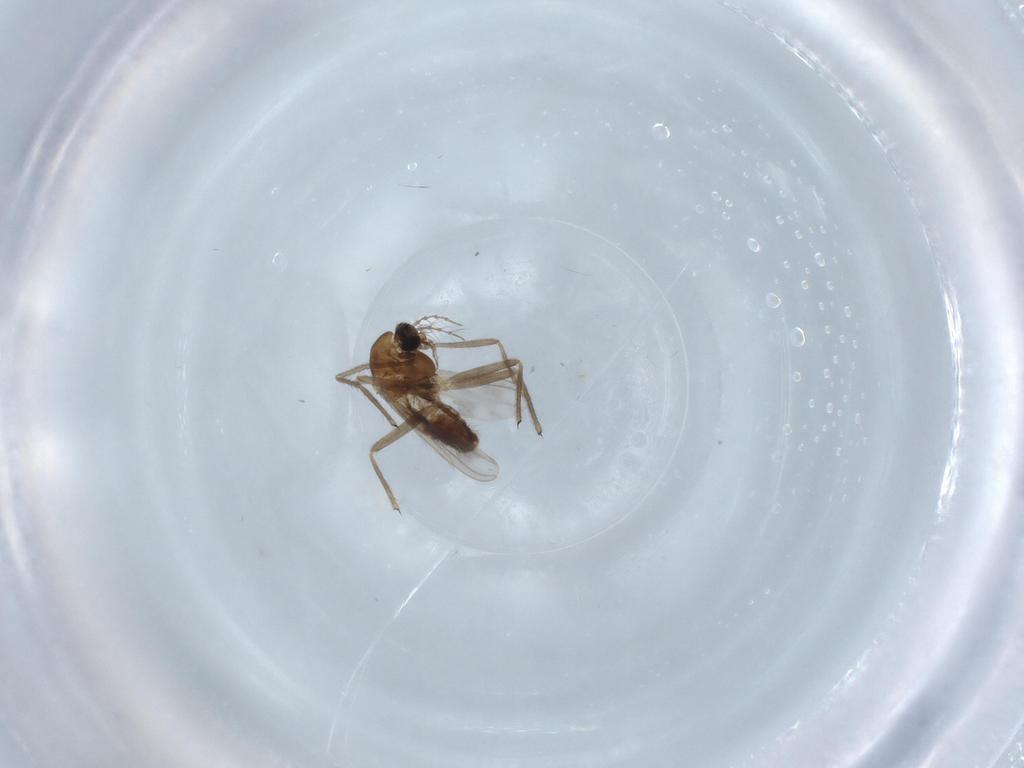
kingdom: Animalia
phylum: Arthropoda
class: Insecta
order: Diptera
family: Chironomidae
